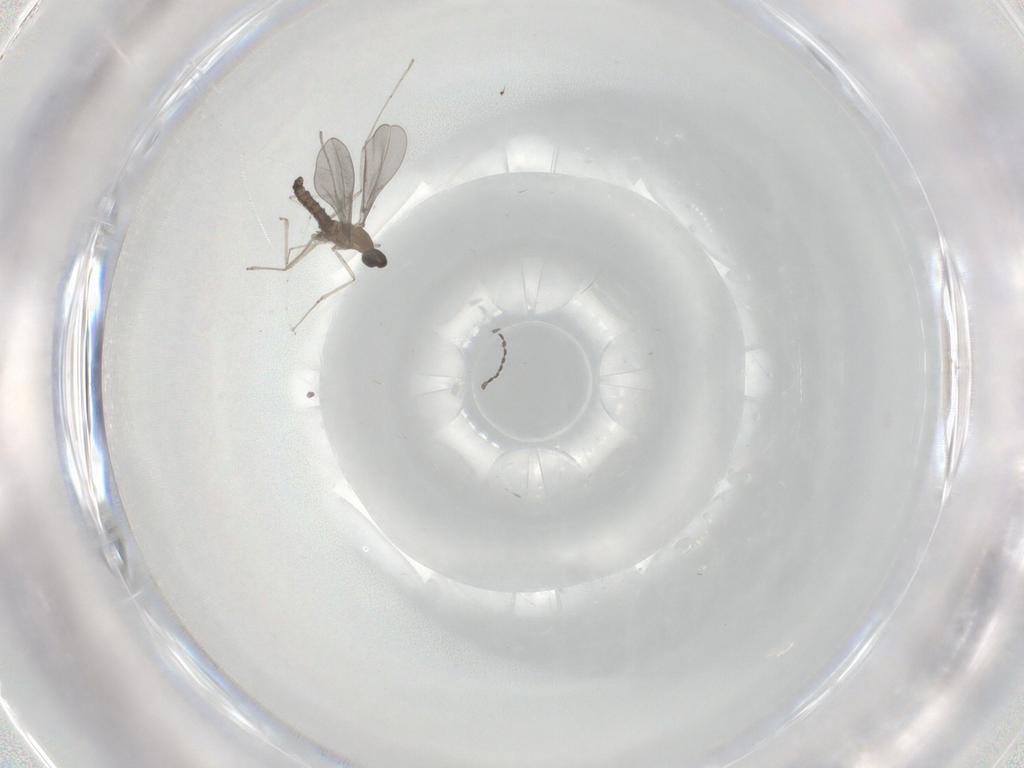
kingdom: Animalia
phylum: Arthropoda
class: Insecta
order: Diptera
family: Cecidomyiidae
